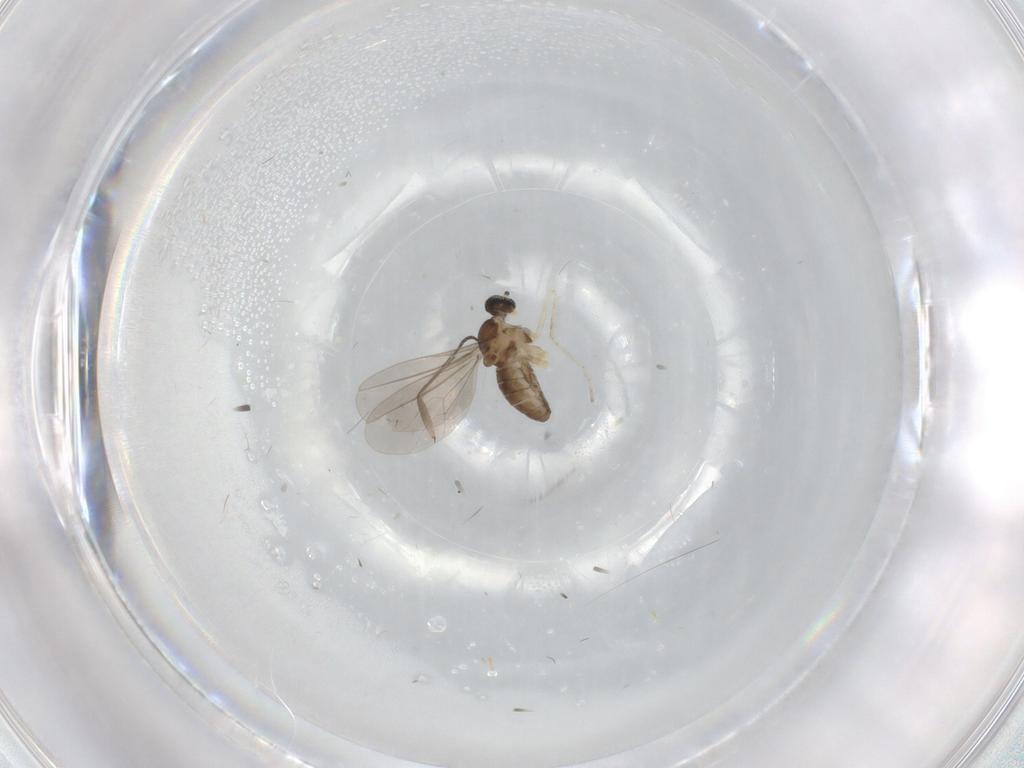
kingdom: Animalia
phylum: Arthropoda
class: Insecta
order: Diptera
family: Sciaridae
